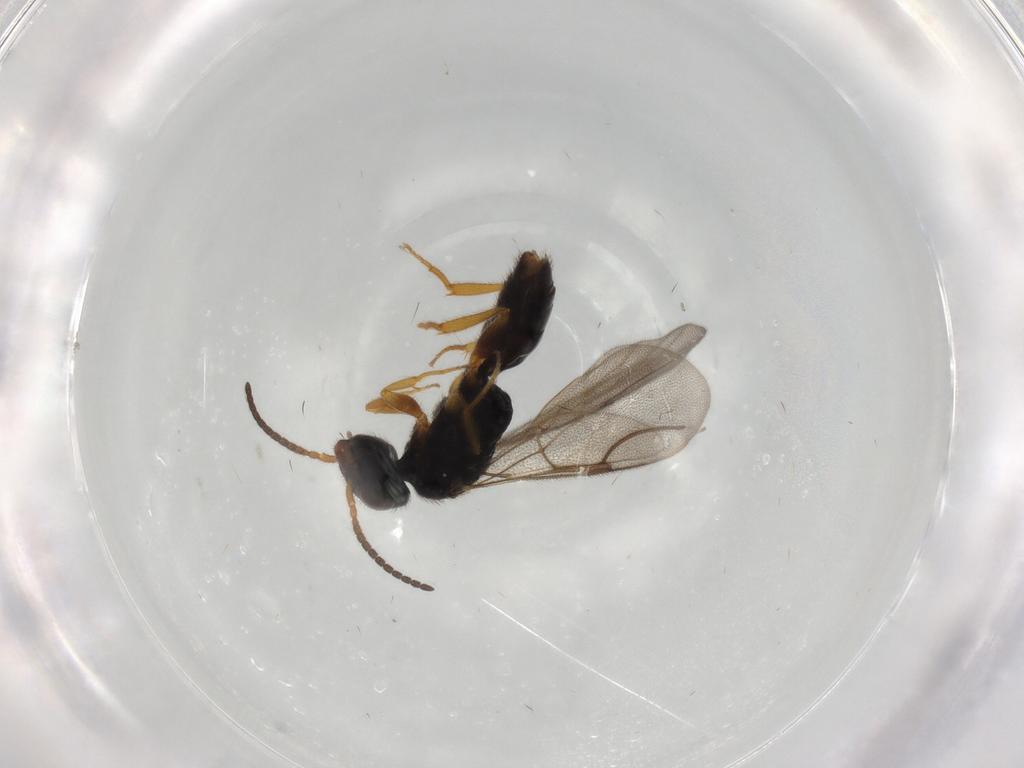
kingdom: Animalia
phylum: Arthropoda
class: Insecta
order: Hymenoptera
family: Bethylidae
